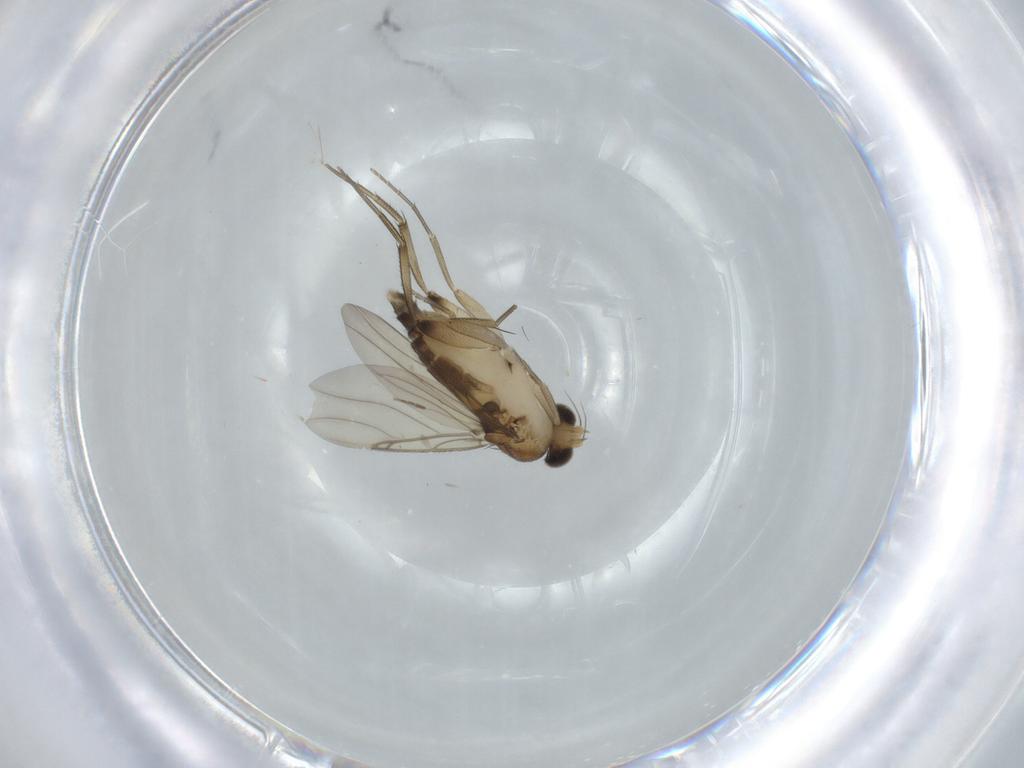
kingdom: Animalia
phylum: Arthropoda
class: Insecta
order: Diptera
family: Phoridae
